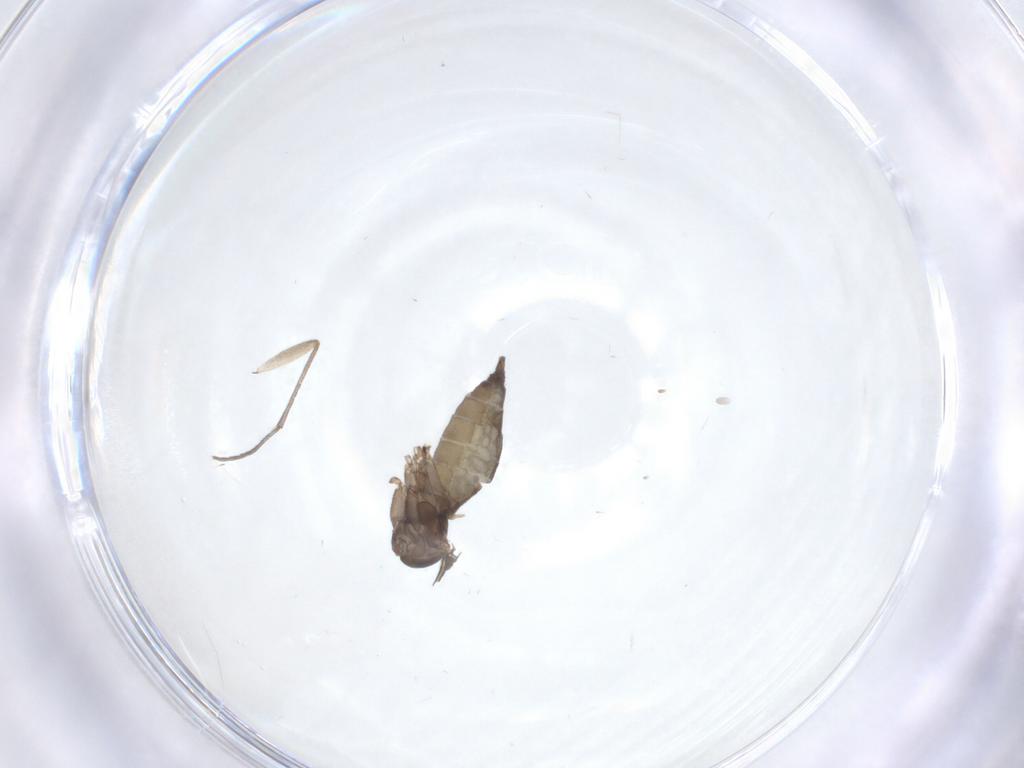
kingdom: Animalia
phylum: Arthropoda
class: Insecta
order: Diptera
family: Sciaridae
